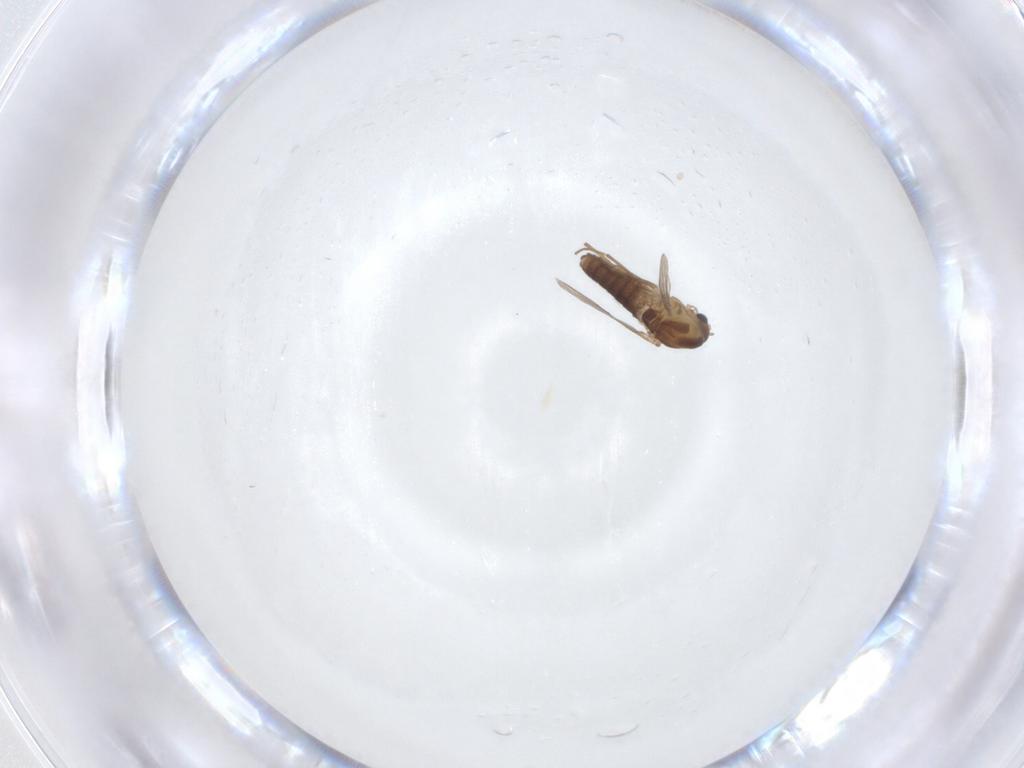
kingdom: Animalia
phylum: Arthropoda
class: Insecta
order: Diptera
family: Chironomidae
